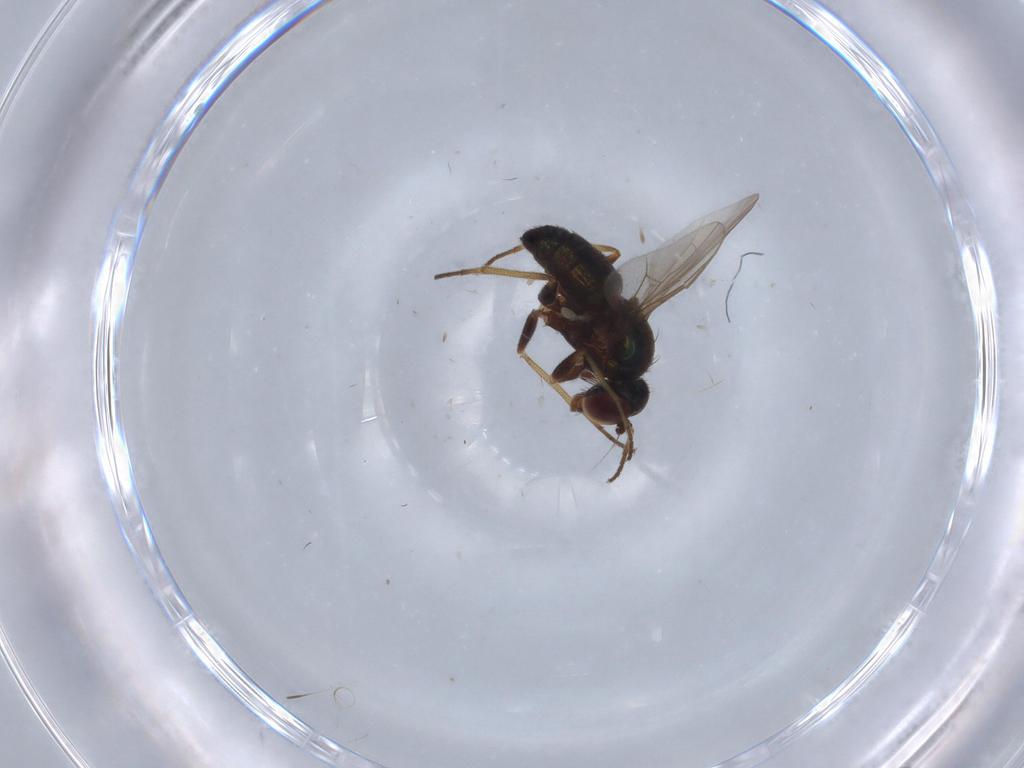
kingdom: Animalia
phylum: Arthropoda
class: Insecta
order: Diptera
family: Dolichopodidae
